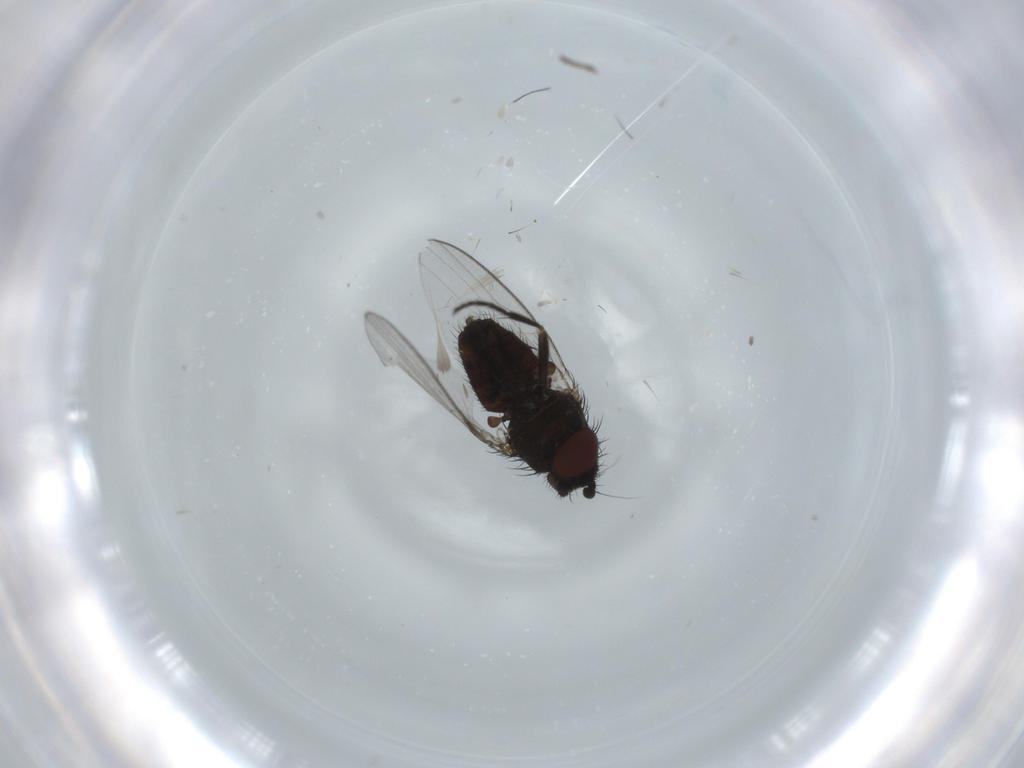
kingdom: Animalia
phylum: Arthropoda
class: Insecta
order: Diptera
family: Milichiidae
